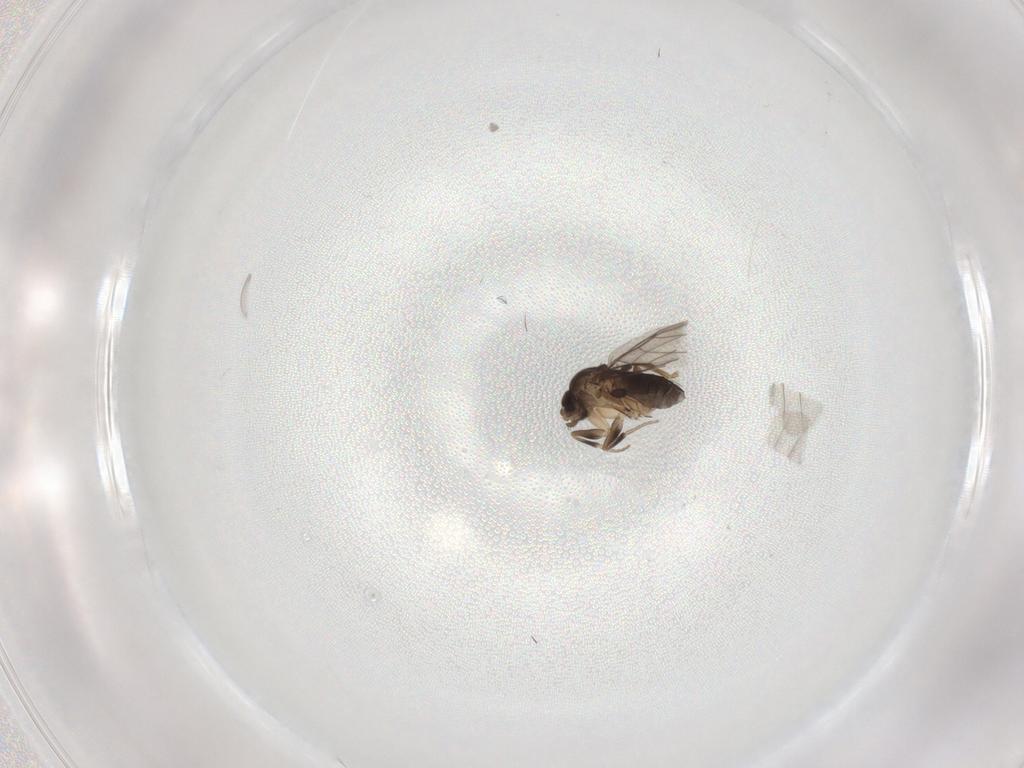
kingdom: Animalia
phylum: Arthropoda
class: Insecta
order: Diptera
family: Phoridae
